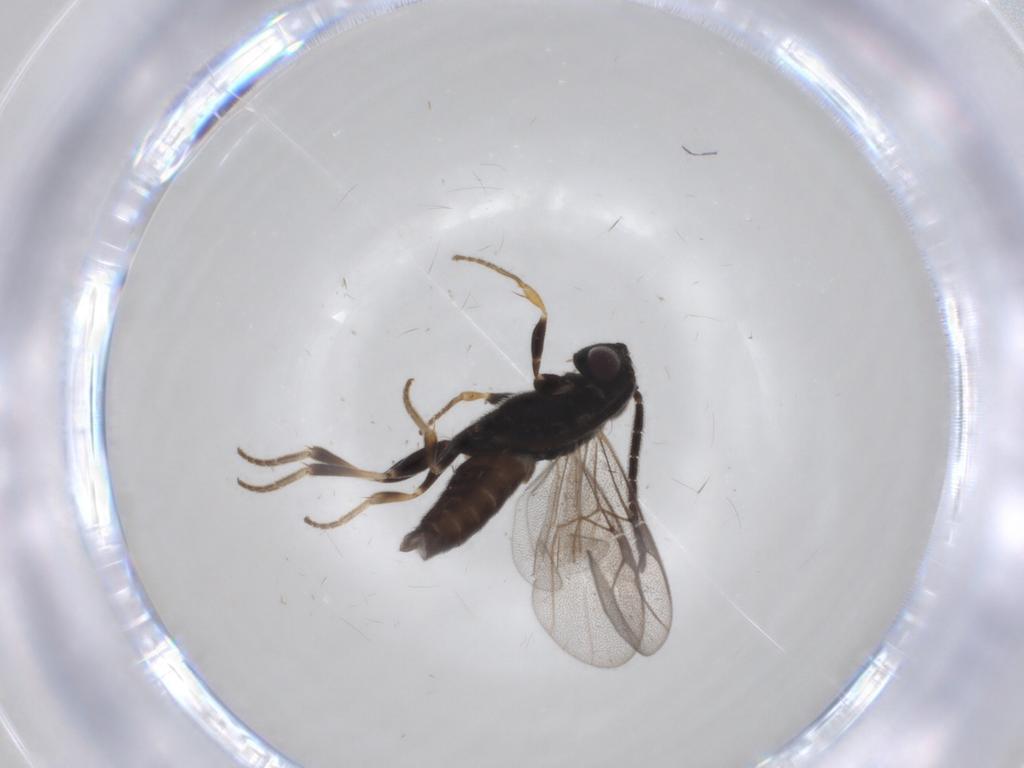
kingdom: Animalia
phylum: Arthropoda
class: Insecta
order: Hymenoptera
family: Dryinidae
